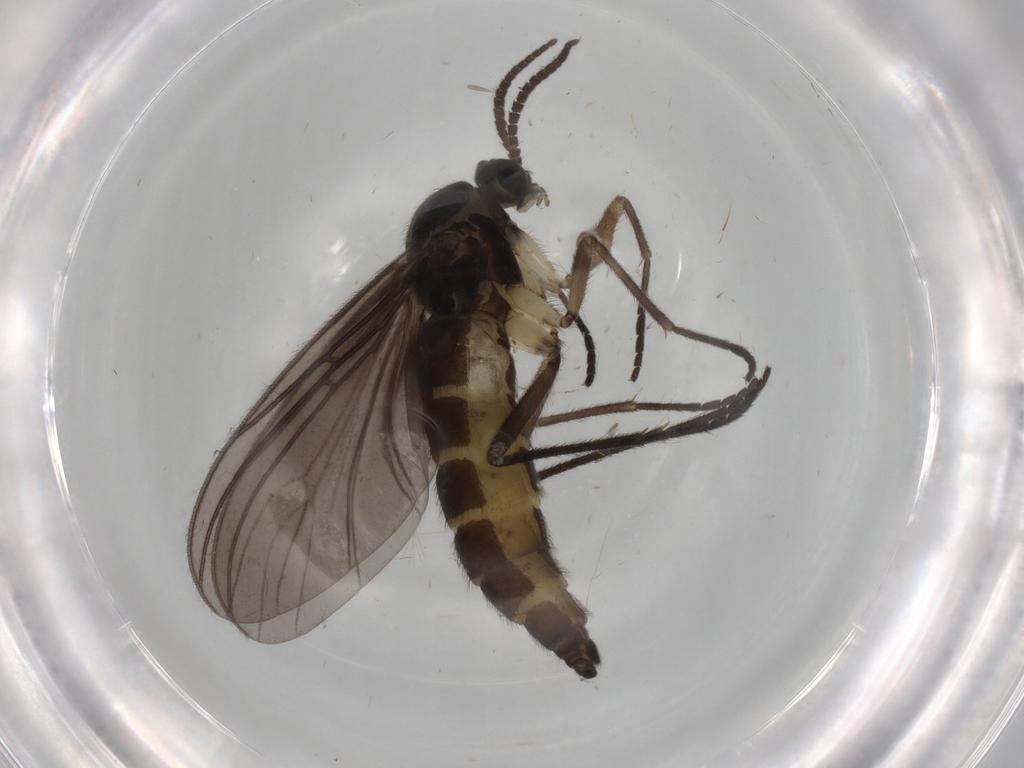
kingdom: Animalia
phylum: Arthropoda
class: Insecta
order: Diptera
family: Sciaridae
